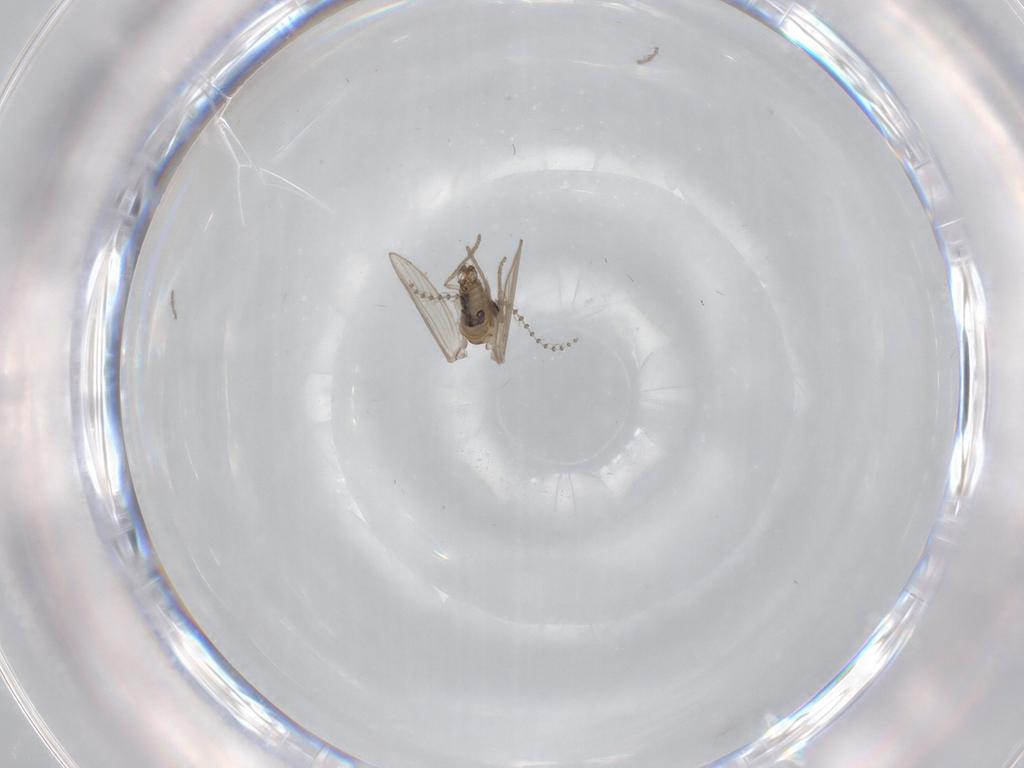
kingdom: Animalia
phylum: Arthropoda
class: Insecta
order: Diptera
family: Psychodidae
